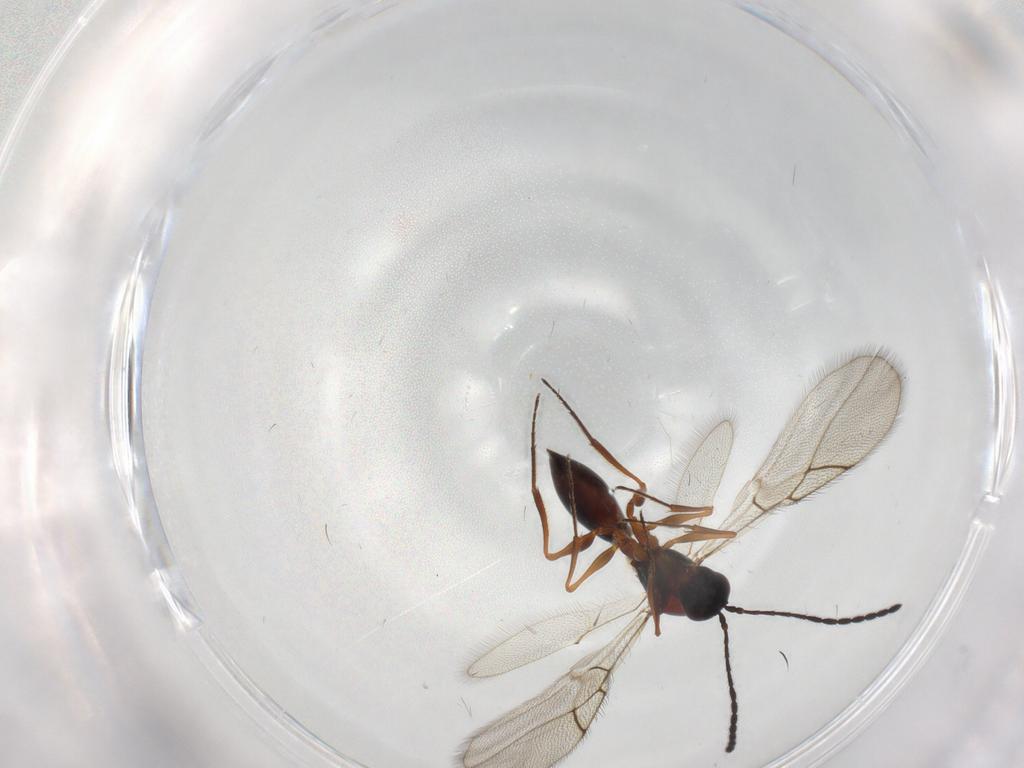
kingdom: Animalia
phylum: Arthropoda
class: Insecta
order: Hymenoptera
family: Figitidae
